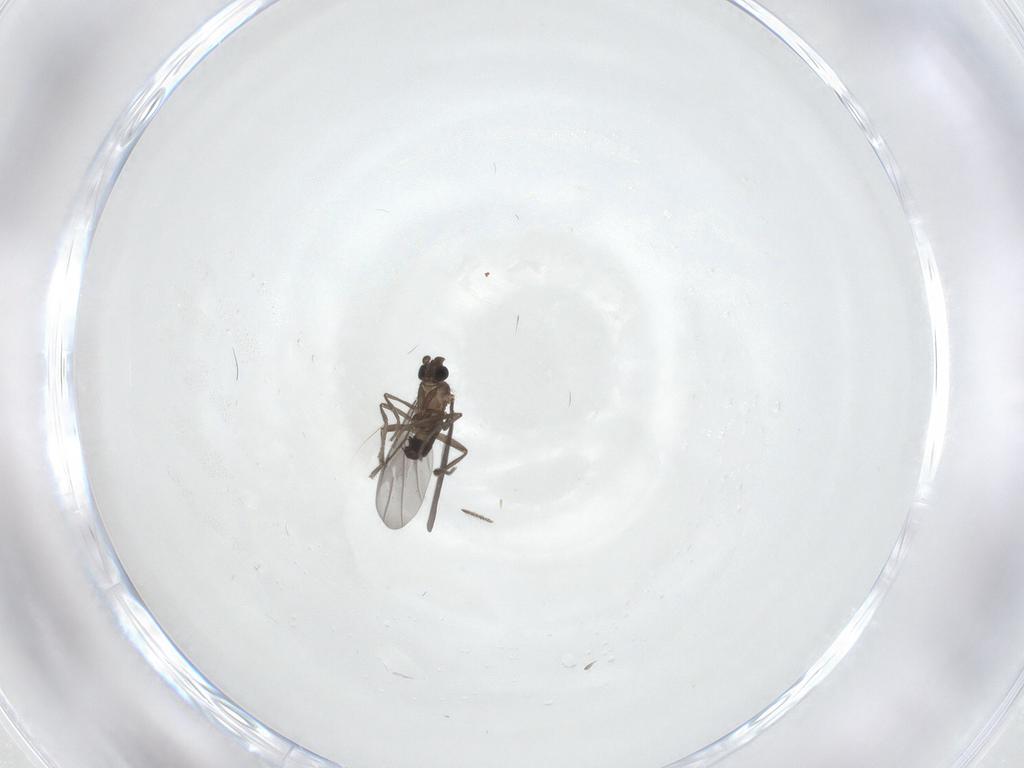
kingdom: Animalia
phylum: Arthropoda
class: Insecta
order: Diptera
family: Phoridae
